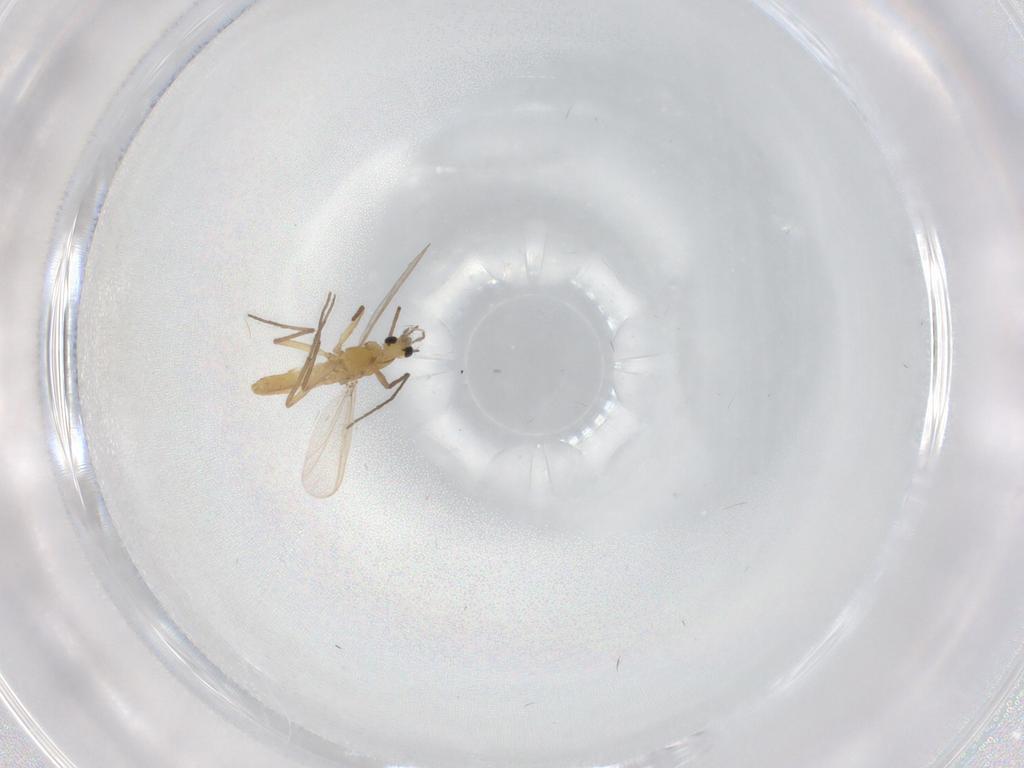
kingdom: Animalia
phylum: Arthropoda
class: Insecta
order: Diptera
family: Chironomidae
